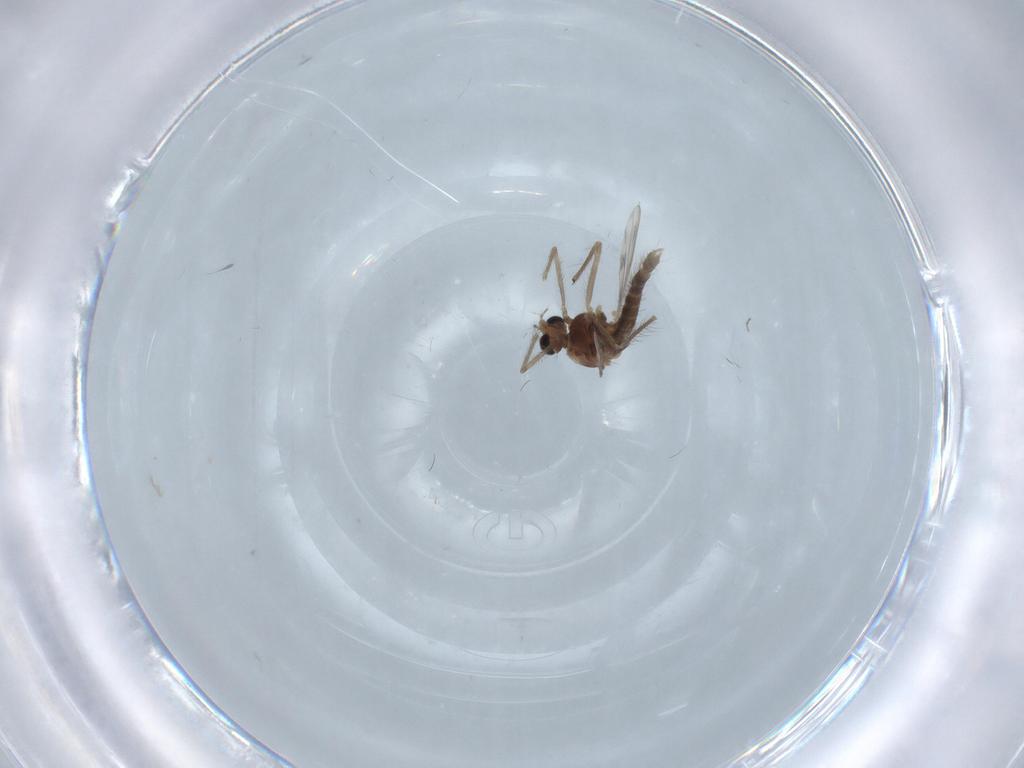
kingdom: Animalia
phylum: Arthropoda
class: Insecta
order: Diptera
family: Chironomidae
